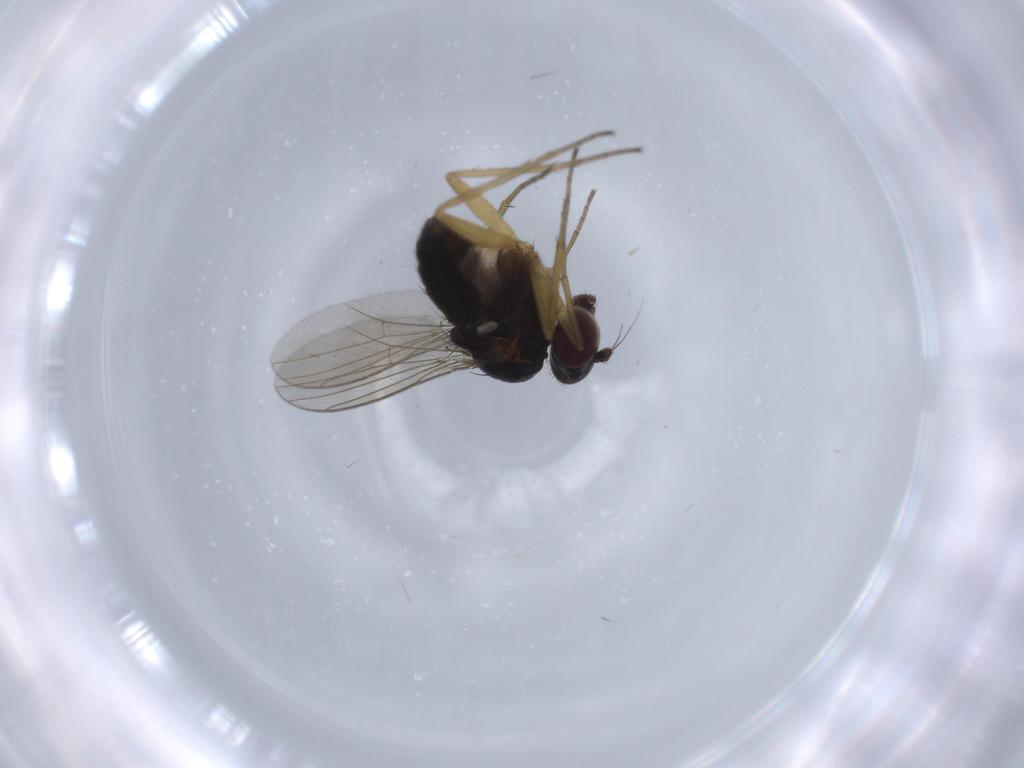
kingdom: Animalia
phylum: Arthropoda
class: Insecta
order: Diptera
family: Dolichopodidae
